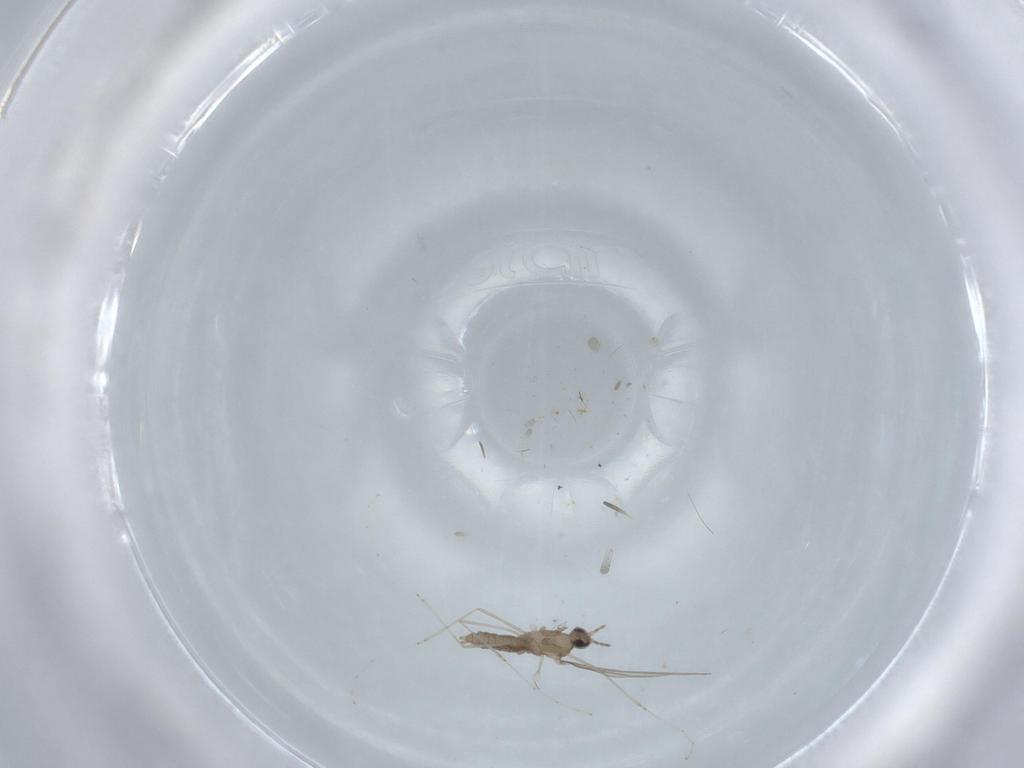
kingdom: Animalia
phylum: Arthropoda
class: Insecta
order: Diptera
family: Cecidomyiidae
